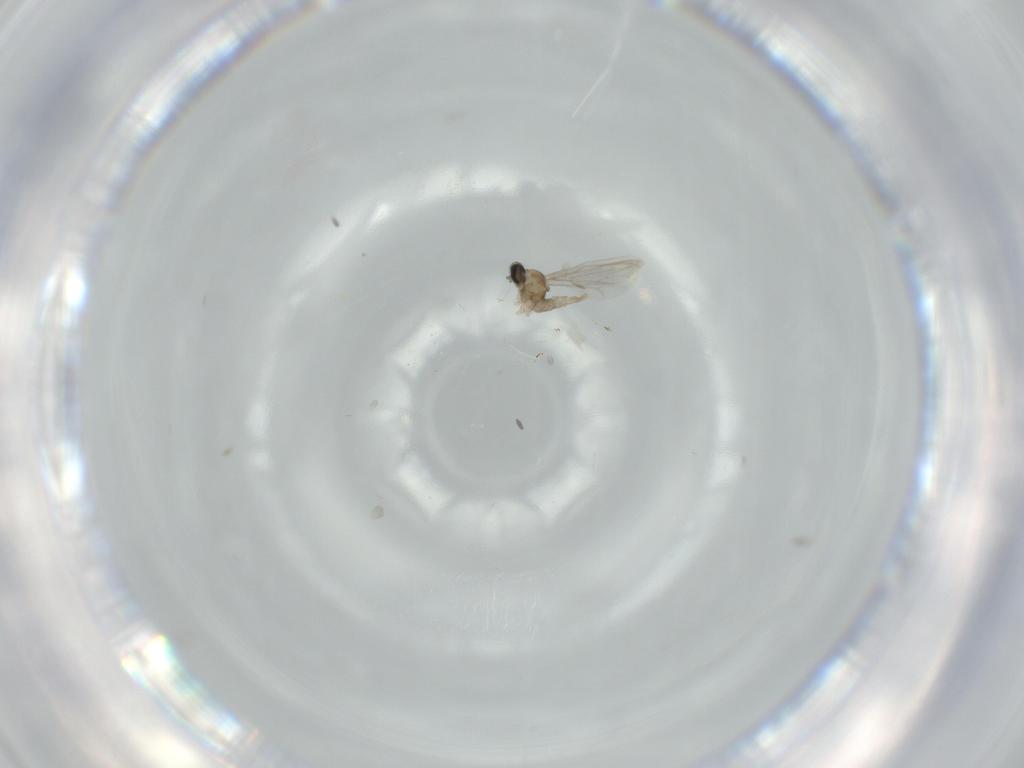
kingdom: Animalia
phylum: Arthropoda
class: Insecta
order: Diptera
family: Cecidomyiidae
